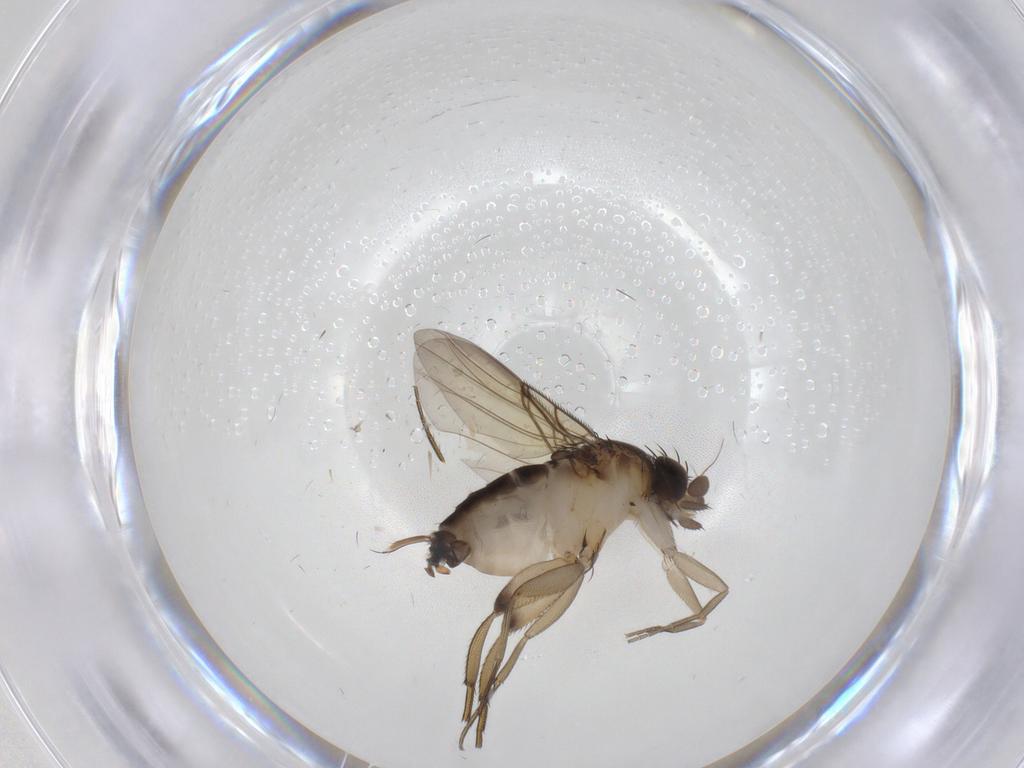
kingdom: Animalia
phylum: Arthropoda
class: Insecta
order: Diptera
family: Phoridae
